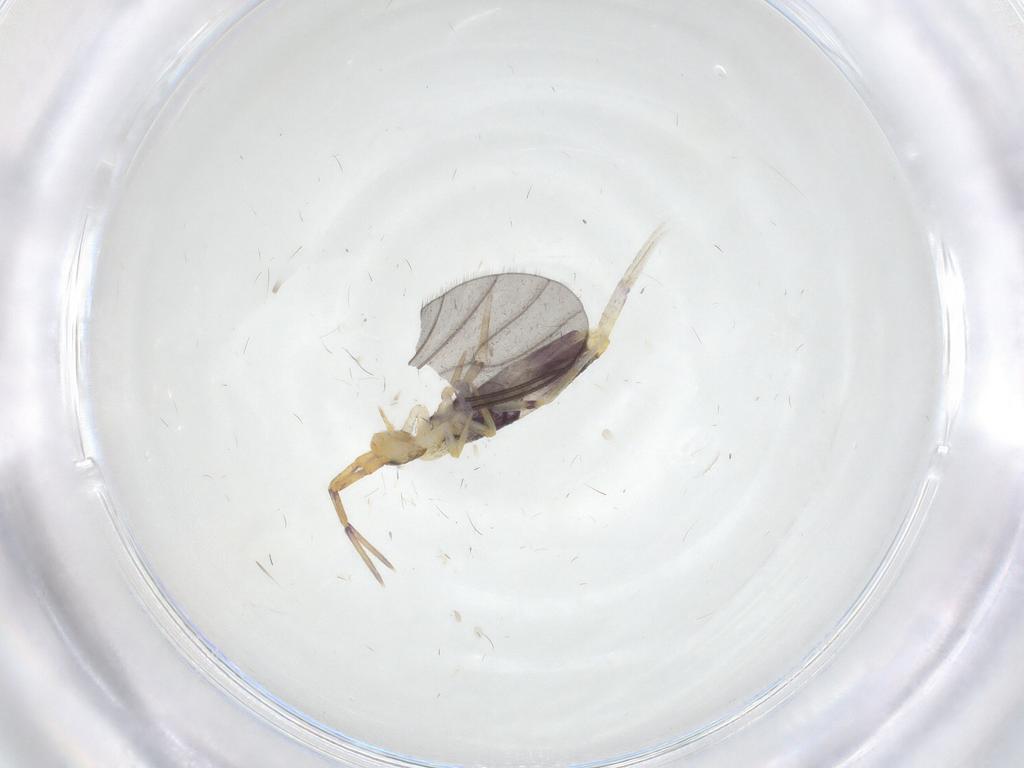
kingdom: Animalia
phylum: Arthropoda
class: Collembola
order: Entomobryomorpha
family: Entomobryidae
